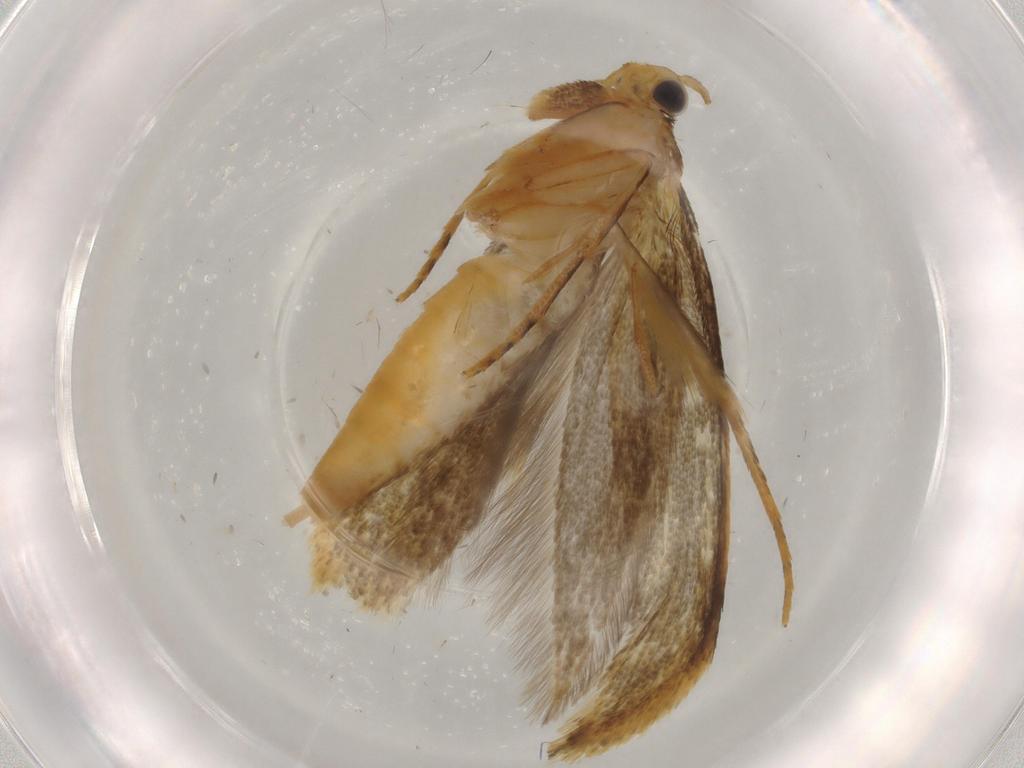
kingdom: Animalia
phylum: Arthropoda
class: Insecta
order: Lepidoptera
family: Tineidae
